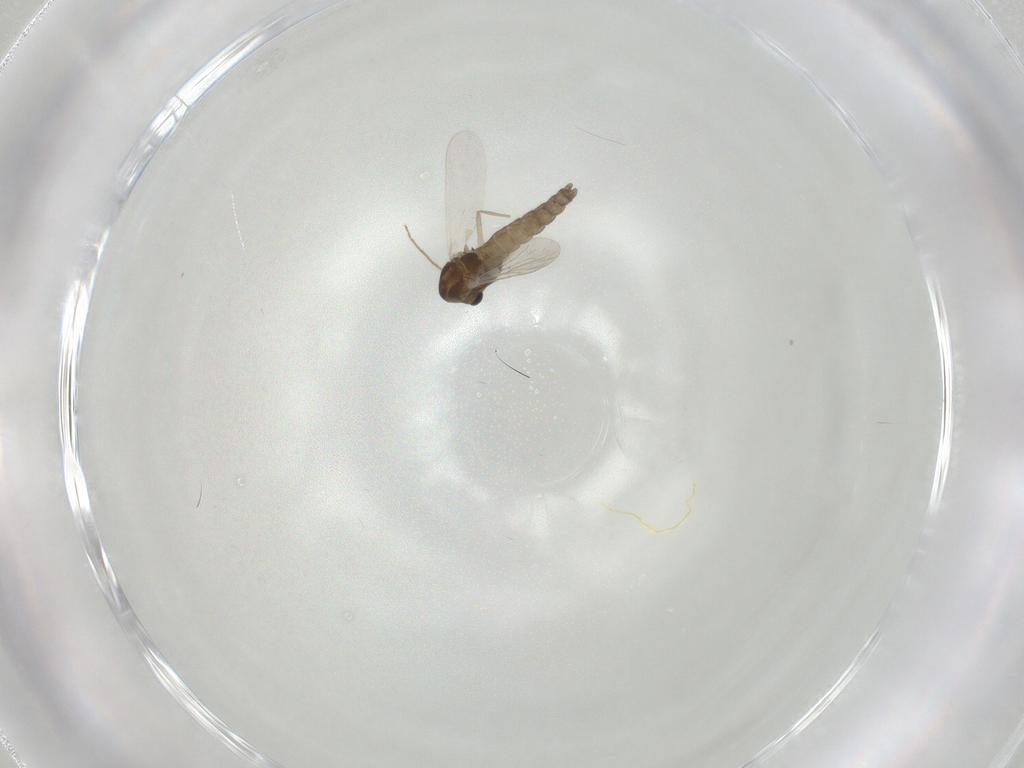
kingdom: Animalia
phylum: Arthropoda
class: Insecta
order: Diptera
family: Chironomidae
